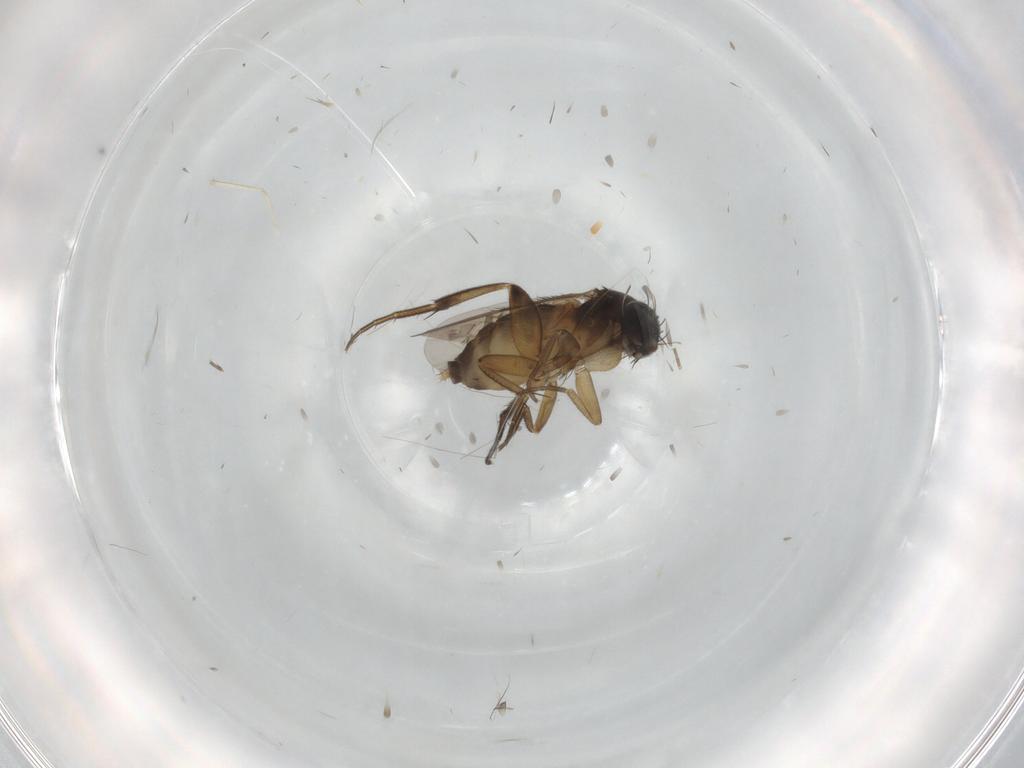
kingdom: Animalia
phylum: Arthropoda
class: Insecta
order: Diptera
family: Phoridae
